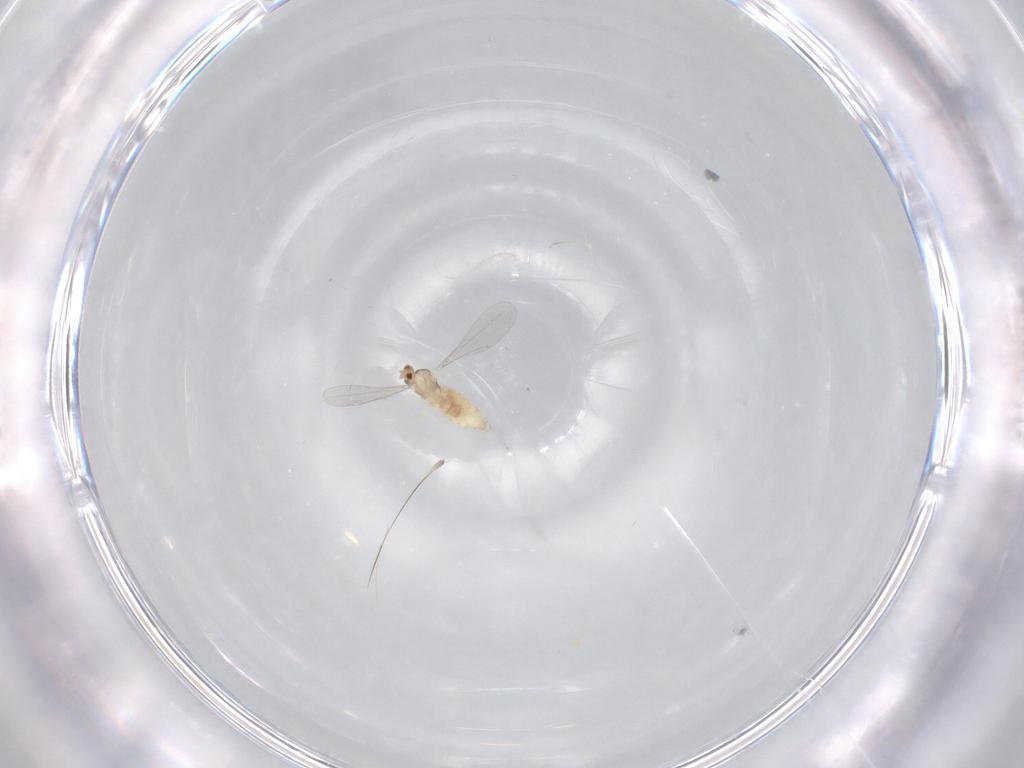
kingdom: Animalia
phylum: Arthropoda
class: Insecta
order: Diptera
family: Cecidomyiidae
